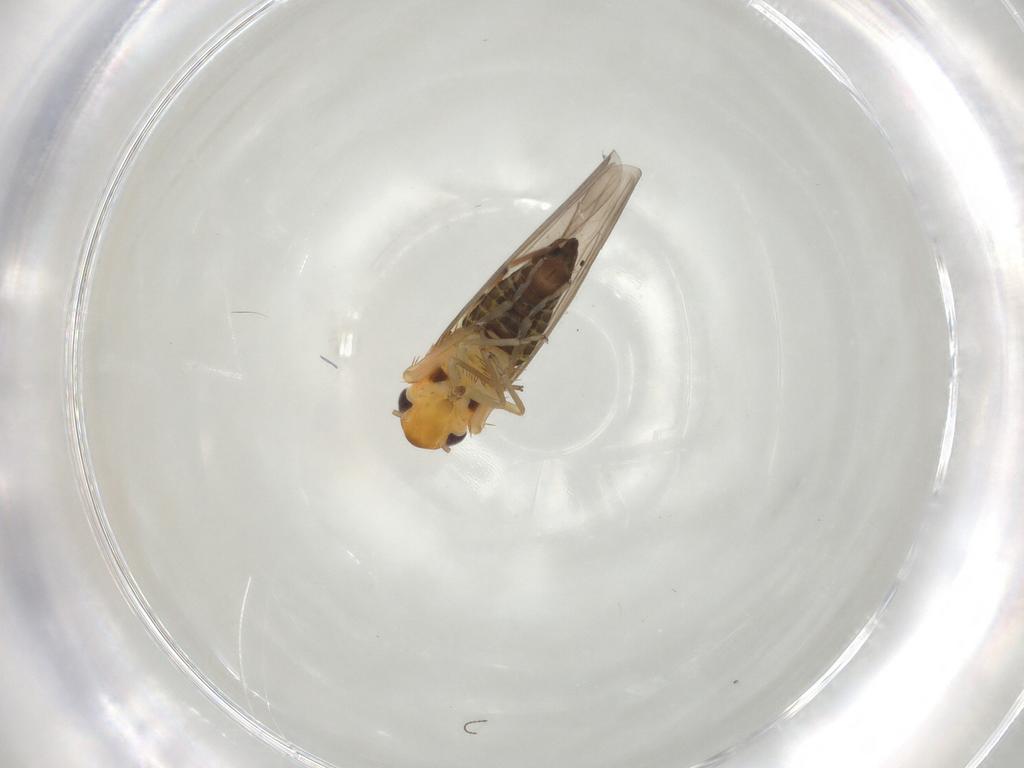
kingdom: Animalia
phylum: Arthropoda
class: Insecta
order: Hemiptera
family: Cicadellidae
